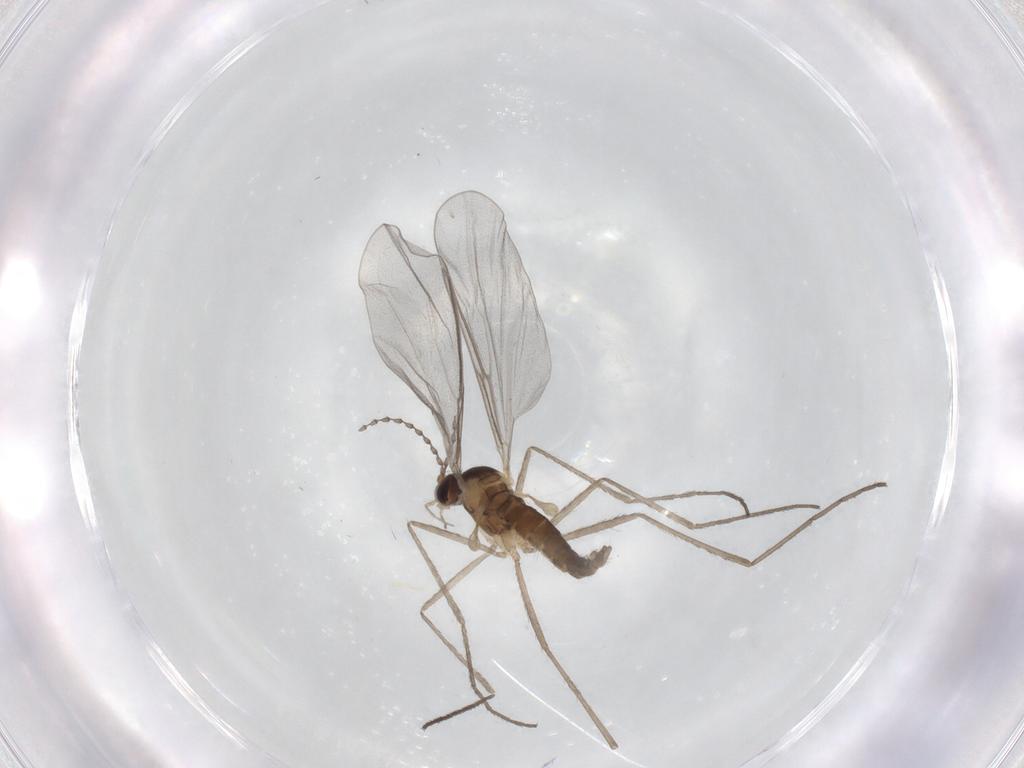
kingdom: Animalia
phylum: Arthropoda
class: Insecta
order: Diptera
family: Cecidomyiidae
